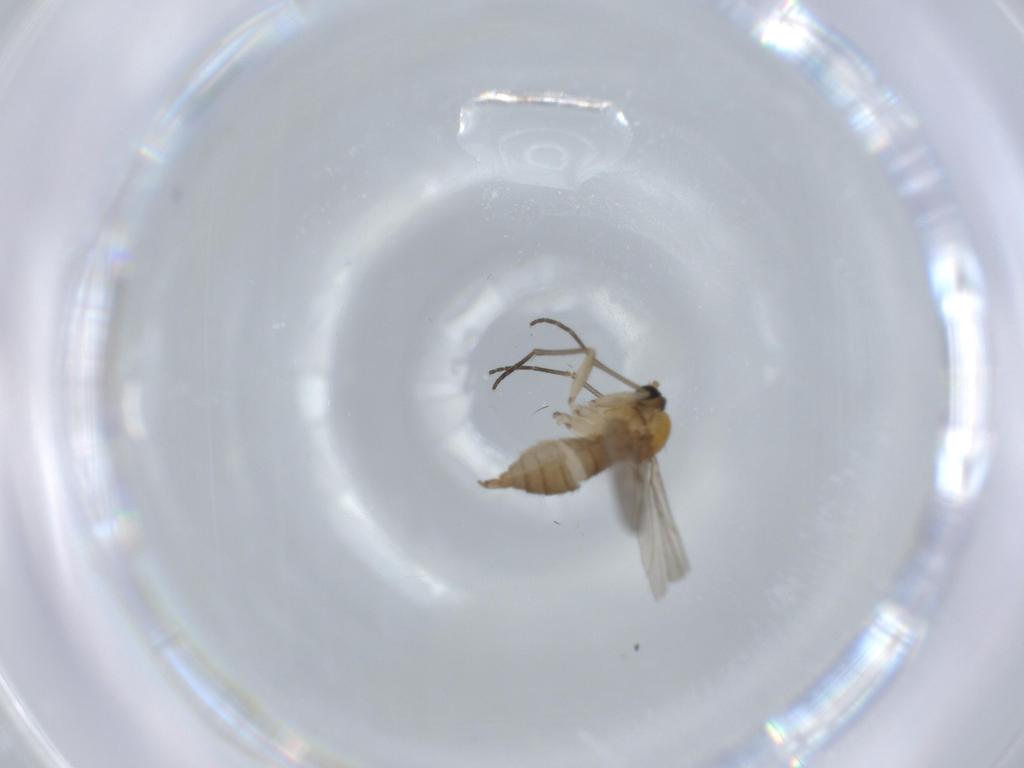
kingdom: Animalia
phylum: Arthropoda
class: Insecta
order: Diptera
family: Sciaridae
